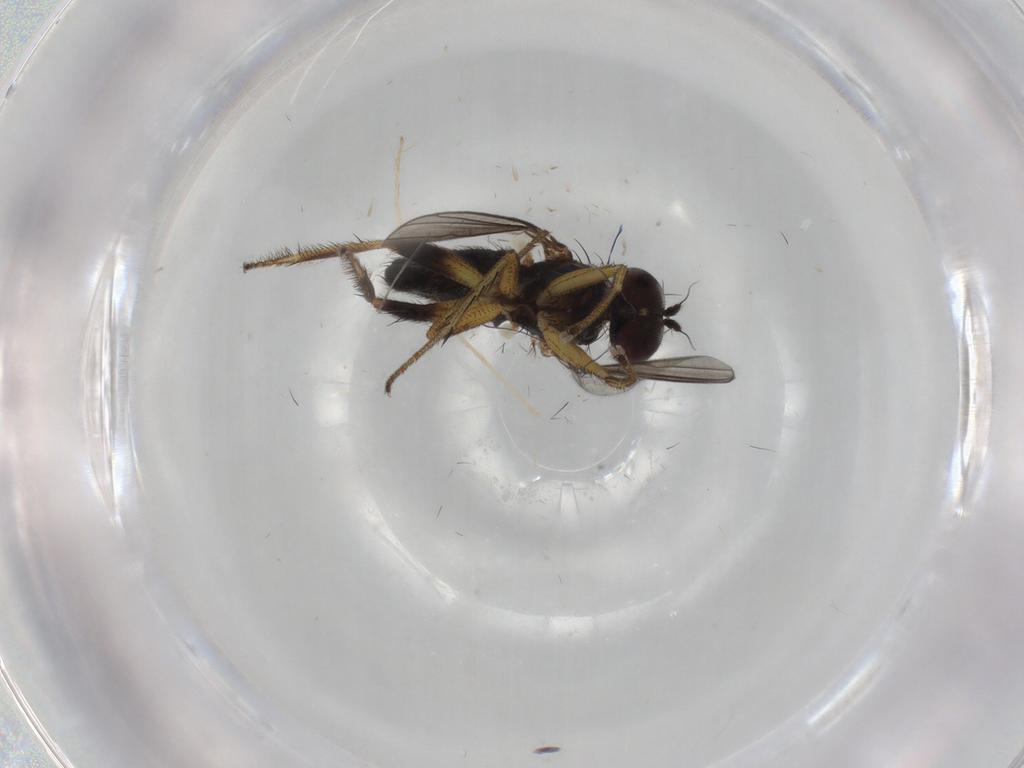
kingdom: Animalia
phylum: Arthropoda
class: Insecta
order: Diptera
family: Dolichopodidae
